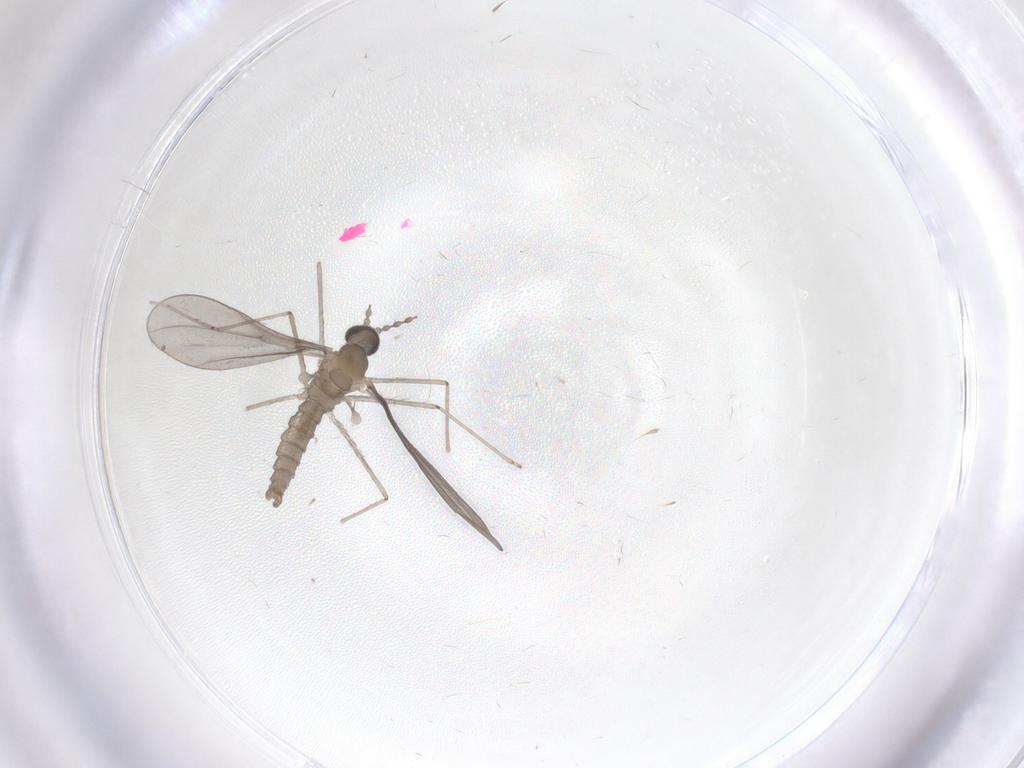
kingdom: Animalia
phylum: Arthropoda
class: Insecta
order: Diptera
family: Cecidomyiidae
